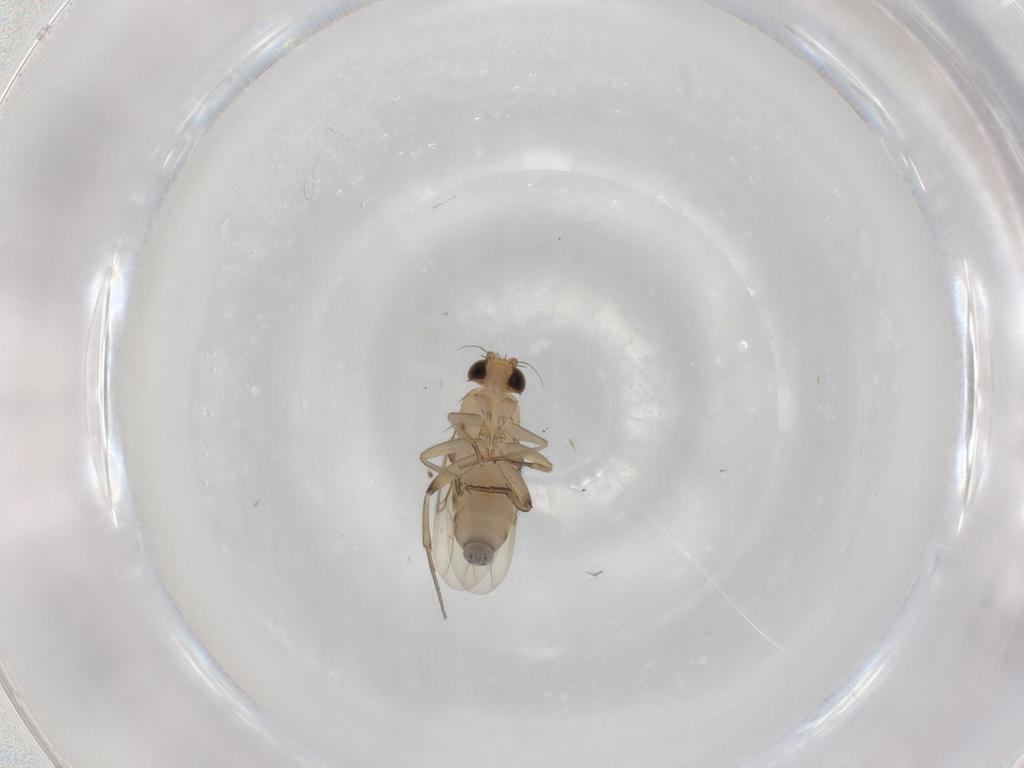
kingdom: Animalia
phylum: Arthropoda
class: Insecta
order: Diptera
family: Phoridae
